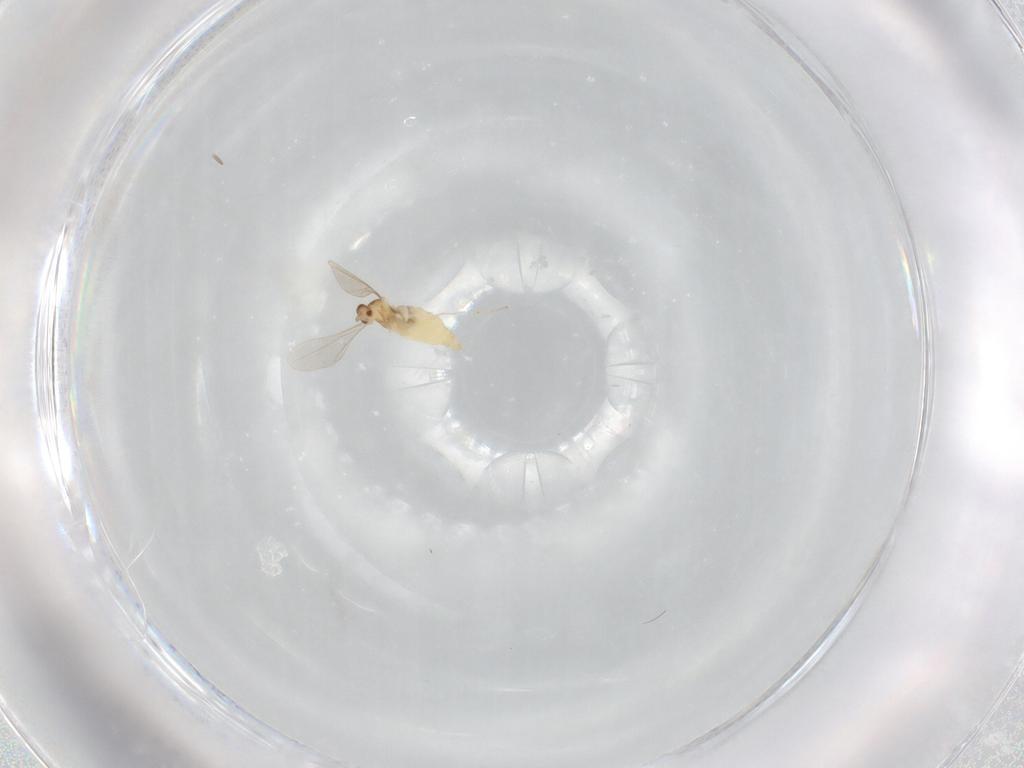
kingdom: Animalia
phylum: Arthropoda
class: Insecta
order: Diptera
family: Cecidomyiidae
